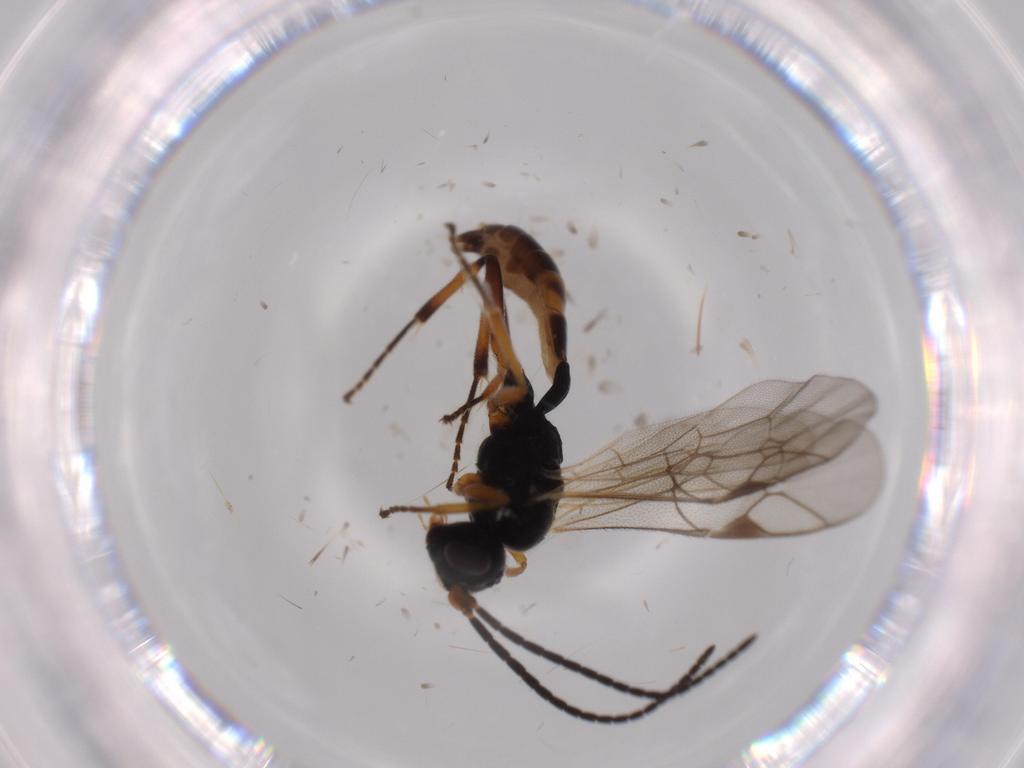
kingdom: Animalia
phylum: Arthropoda
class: Insecta
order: Hymenoptera
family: Ichneumonidae
